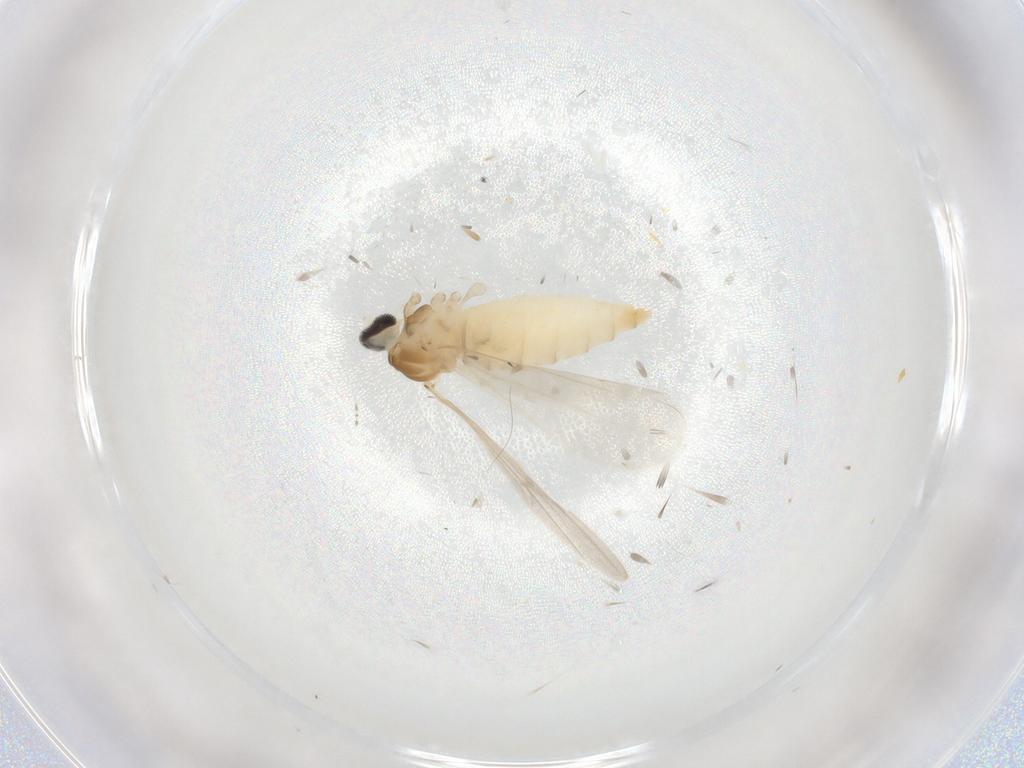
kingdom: Animalia
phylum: Arthropoda
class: Insecta
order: Diptera
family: Cecidomyiidae
